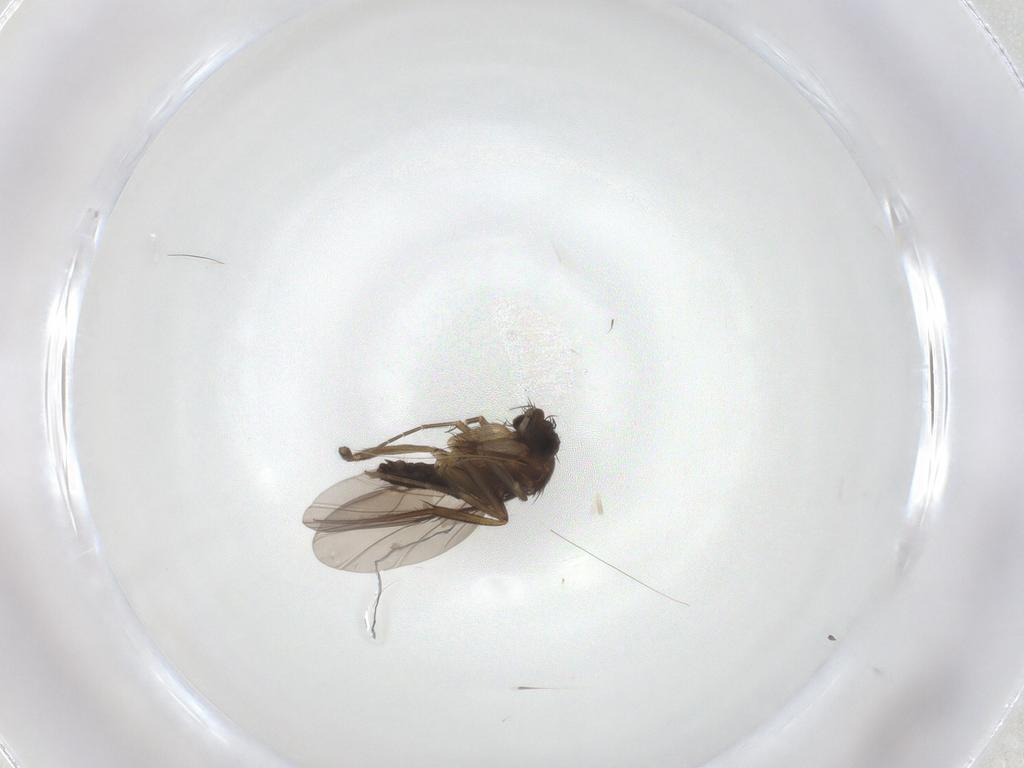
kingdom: Animalia
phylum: Arthropoda
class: Insecta
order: Diptera
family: Phoridae
